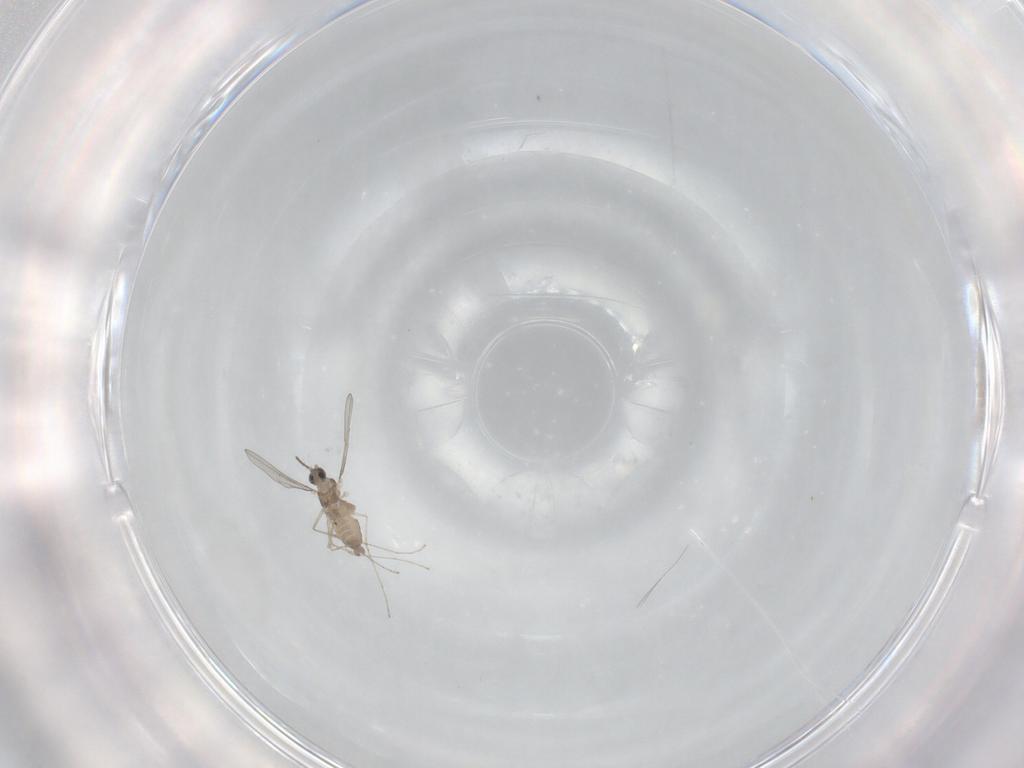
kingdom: Animalia
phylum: Arthropoda
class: Insecta
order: Diptera
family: Cecidomyiidae
